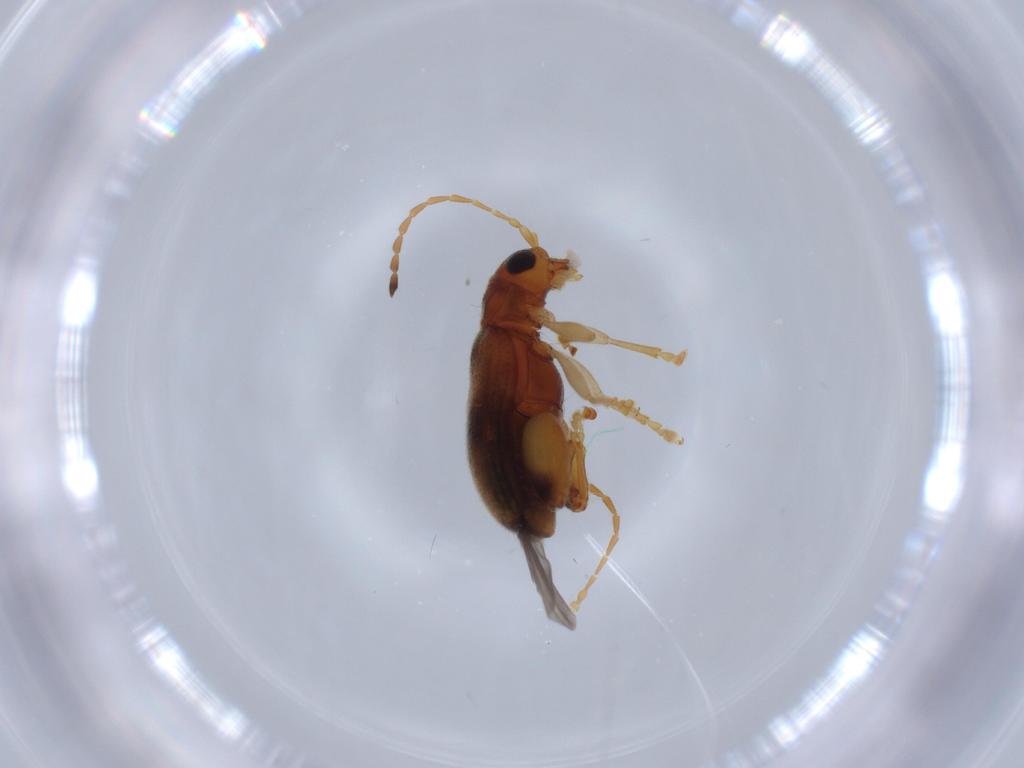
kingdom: Animalia
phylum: Arthropoda
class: Insecta
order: Coleoptera
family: Chrysomelidae
